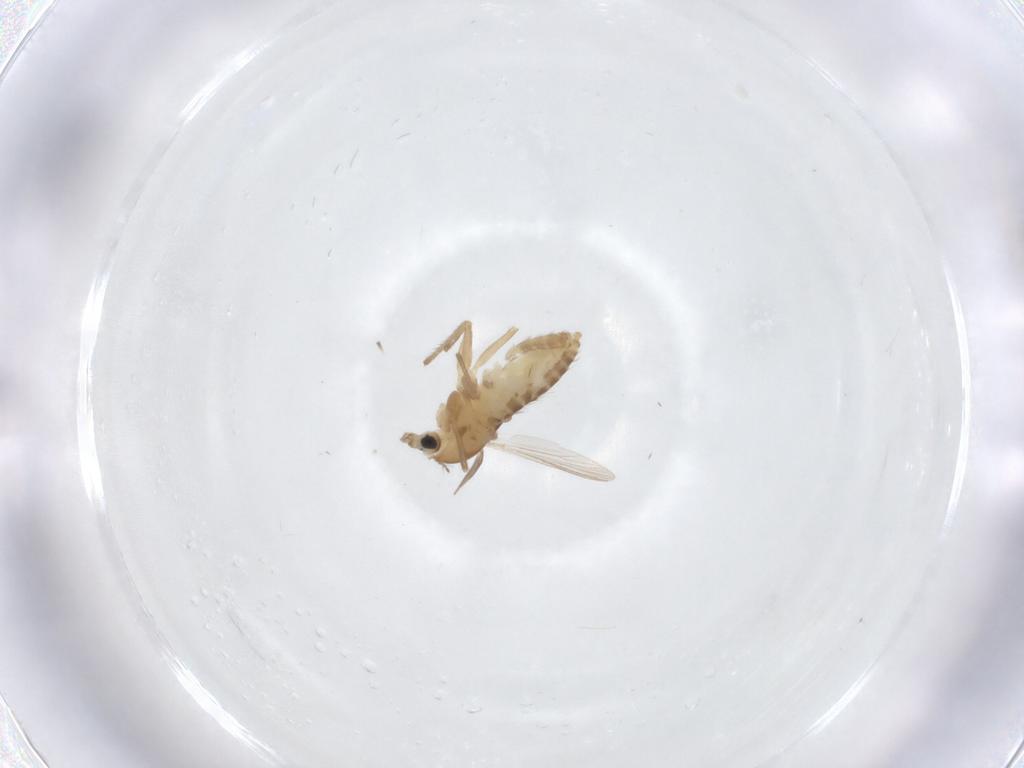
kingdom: Animalia
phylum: Arthropoda
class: Insecta
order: Diptera
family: Chironomidae
